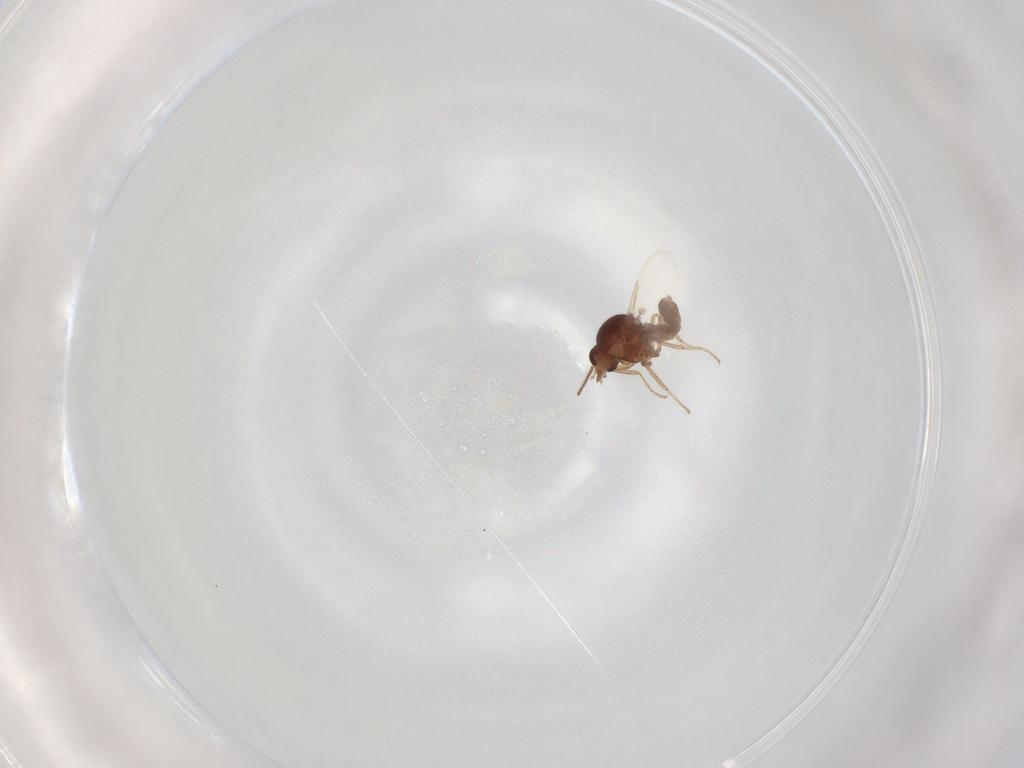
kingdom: Animalia
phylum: Arthropoda
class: Insecta
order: Diptera
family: Ceratopogonidae
